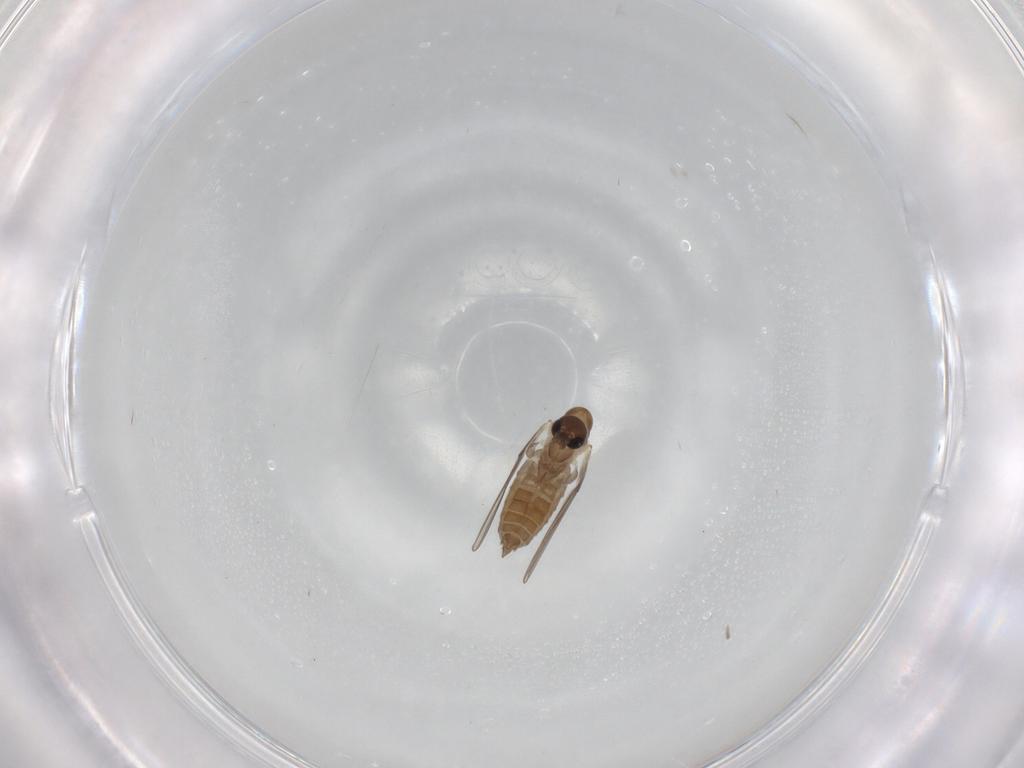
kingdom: Animalia
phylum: Arthropoda
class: Insecta
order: Diptera
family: Psychodidae
